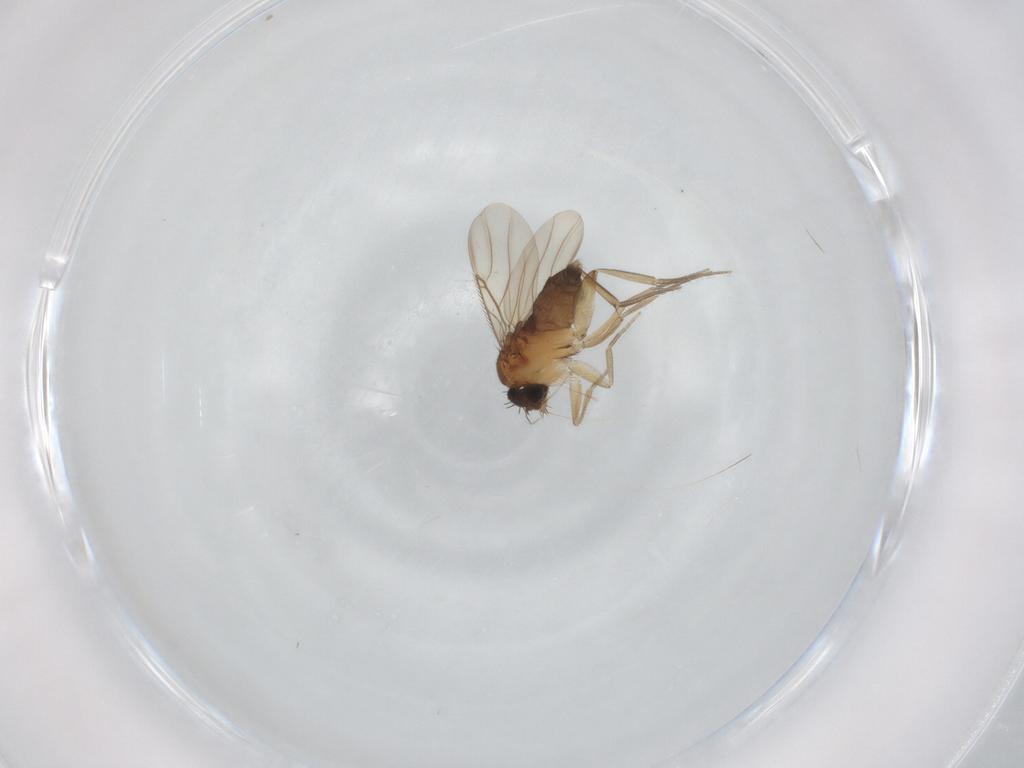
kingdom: Animalia
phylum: Arthropoda
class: Insecta
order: Diptera
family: Phoridae
